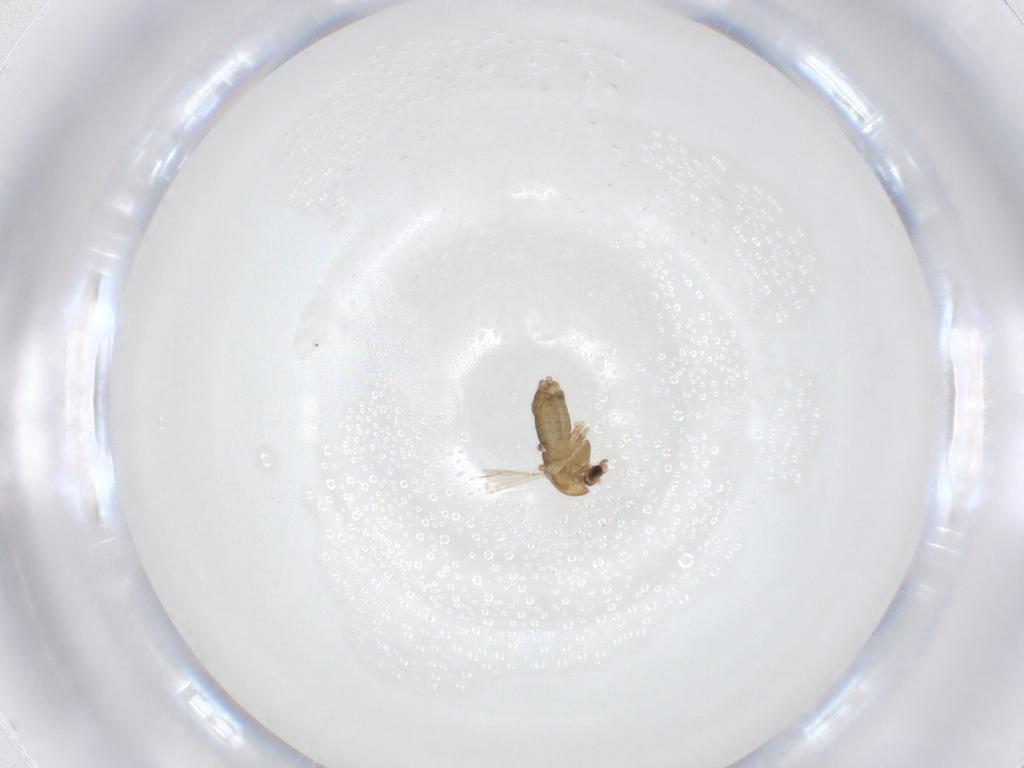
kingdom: Animalia
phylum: Arthropoda
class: Insecta
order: Diptera
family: Chironomidae
